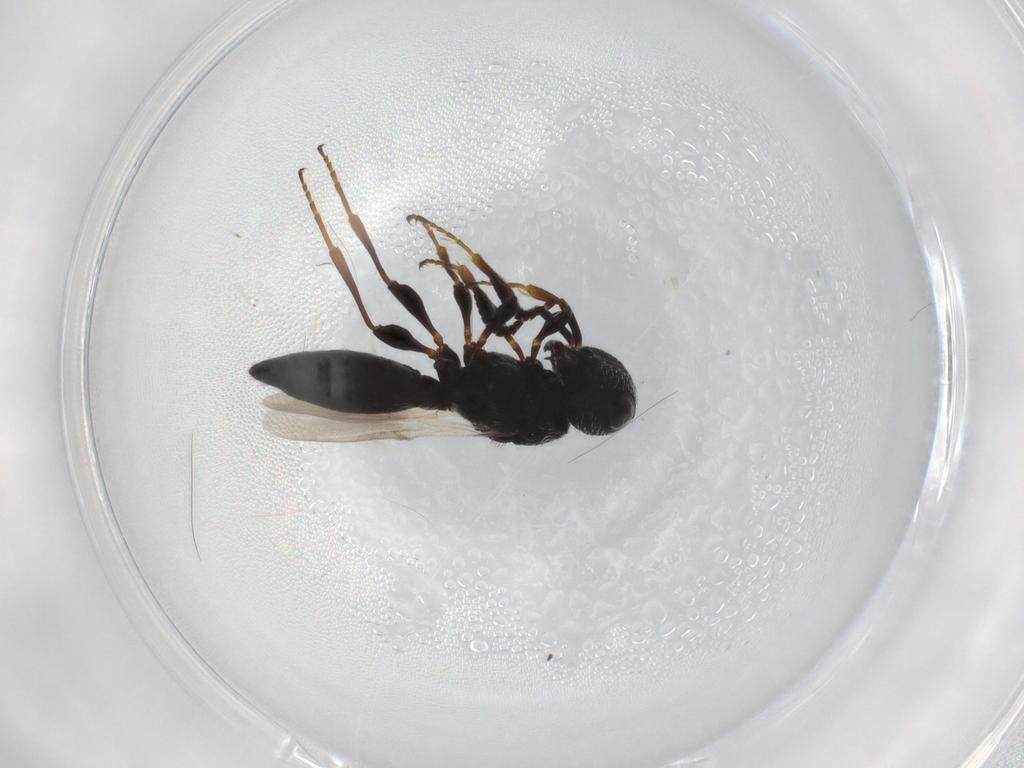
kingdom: Animalia
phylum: Arthropoda
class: Insecta
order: Hymenoptera
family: Scelionidae
